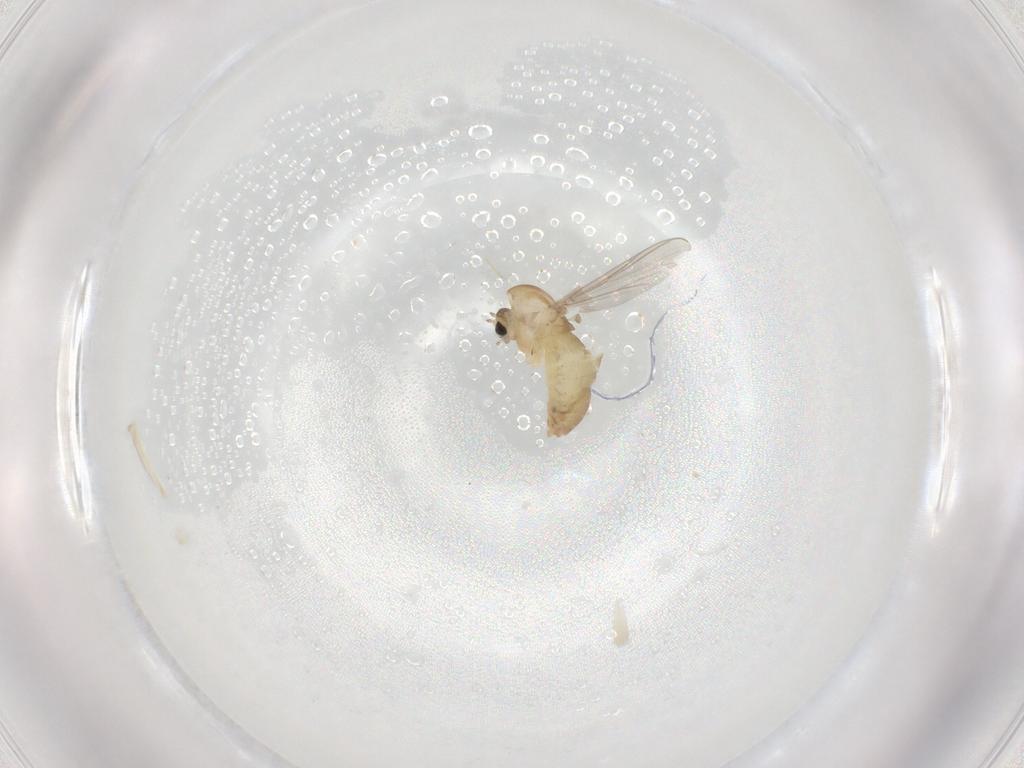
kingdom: Animalia
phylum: Arthropoda
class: Insecta
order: Diptera
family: Chironomidae
